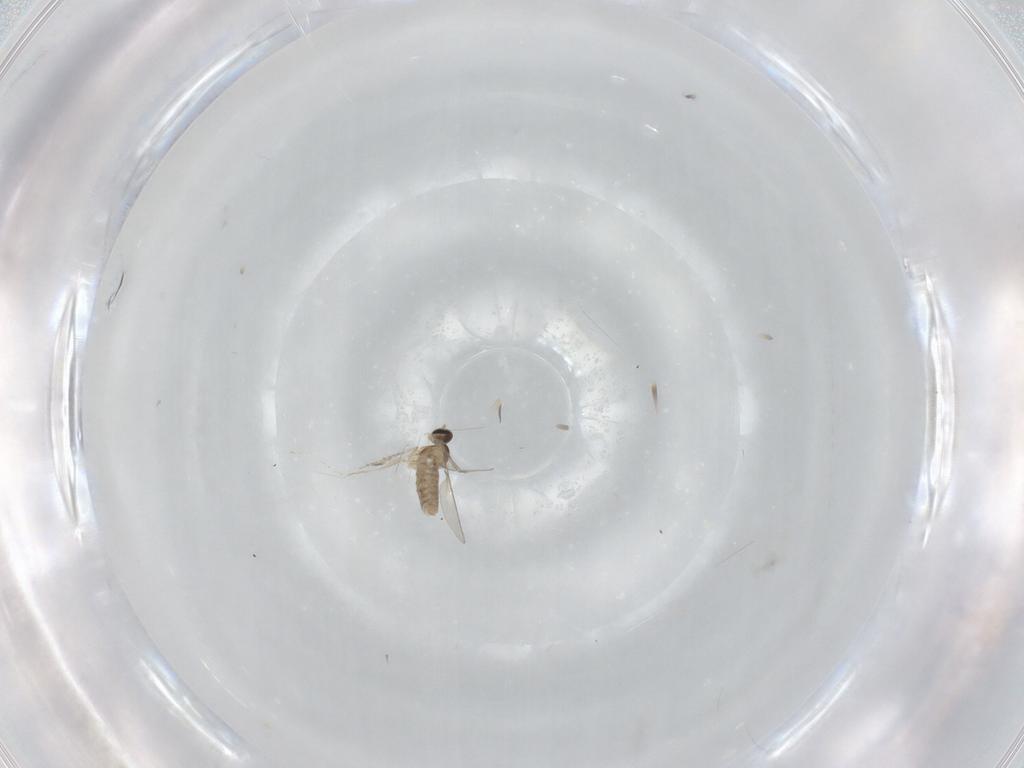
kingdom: Animalia
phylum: Arthropoda
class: Insecta
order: Diptera
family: Cecidomyiidae
